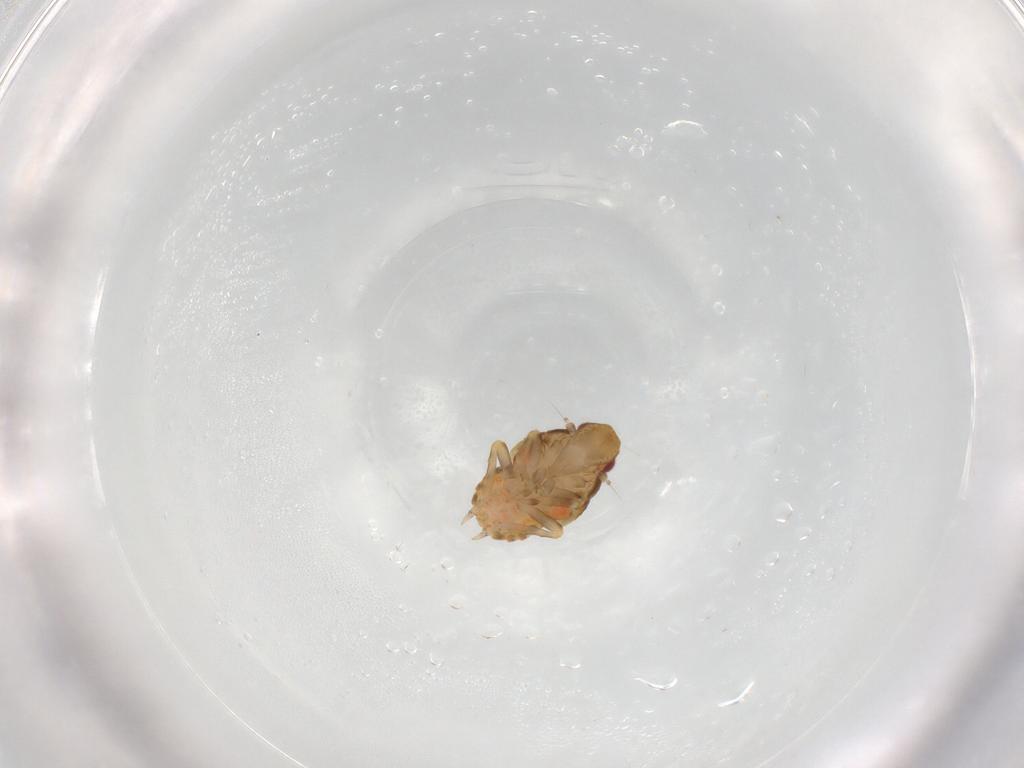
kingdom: Animalia
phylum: Arthropoda
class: Insecta
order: Hemiptera
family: Flatidae
